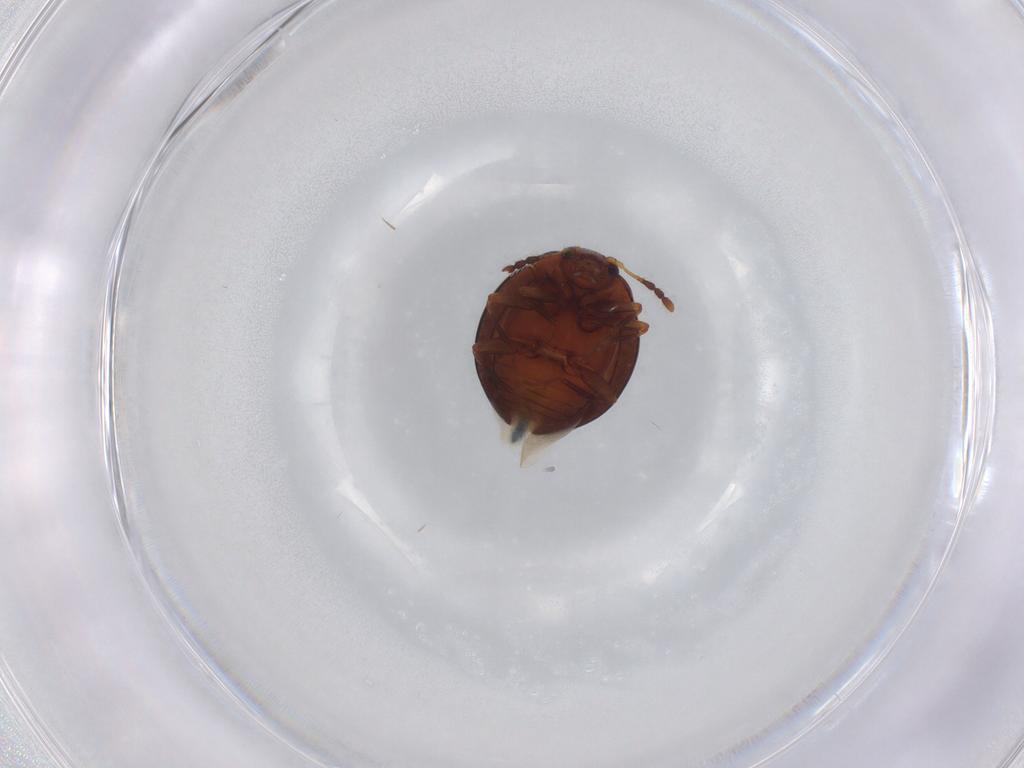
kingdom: Animalia
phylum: Arthropoda
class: Insecta
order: Coleoptera
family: Anamorphidae
